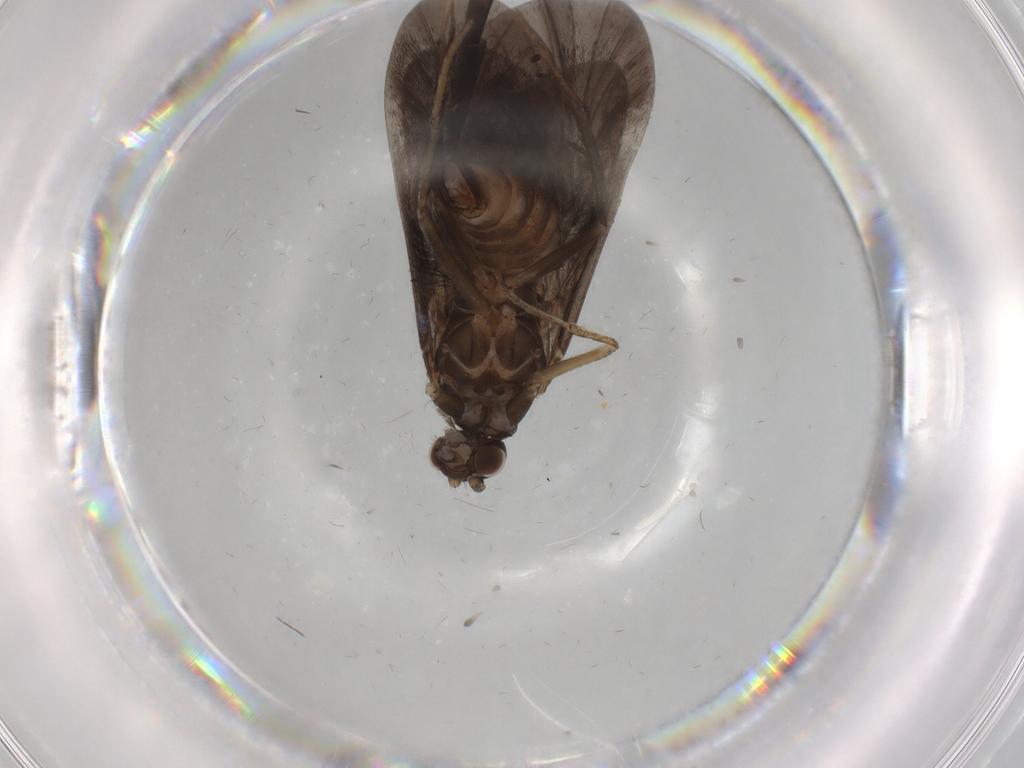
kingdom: Animalia
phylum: Arthropoda
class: Insecta
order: Trichoptera
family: Hydropsychidae
